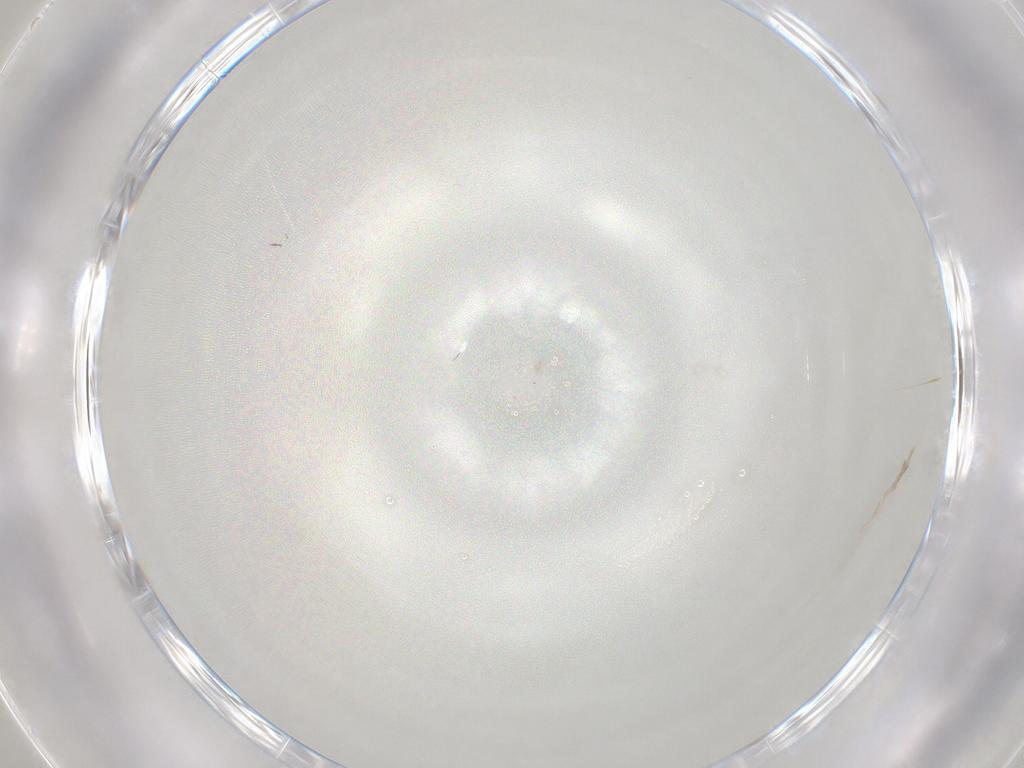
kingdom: Animalia
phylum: Arthropoda
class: Insecta
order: Hymenoptera
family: Trichogrammatidae
